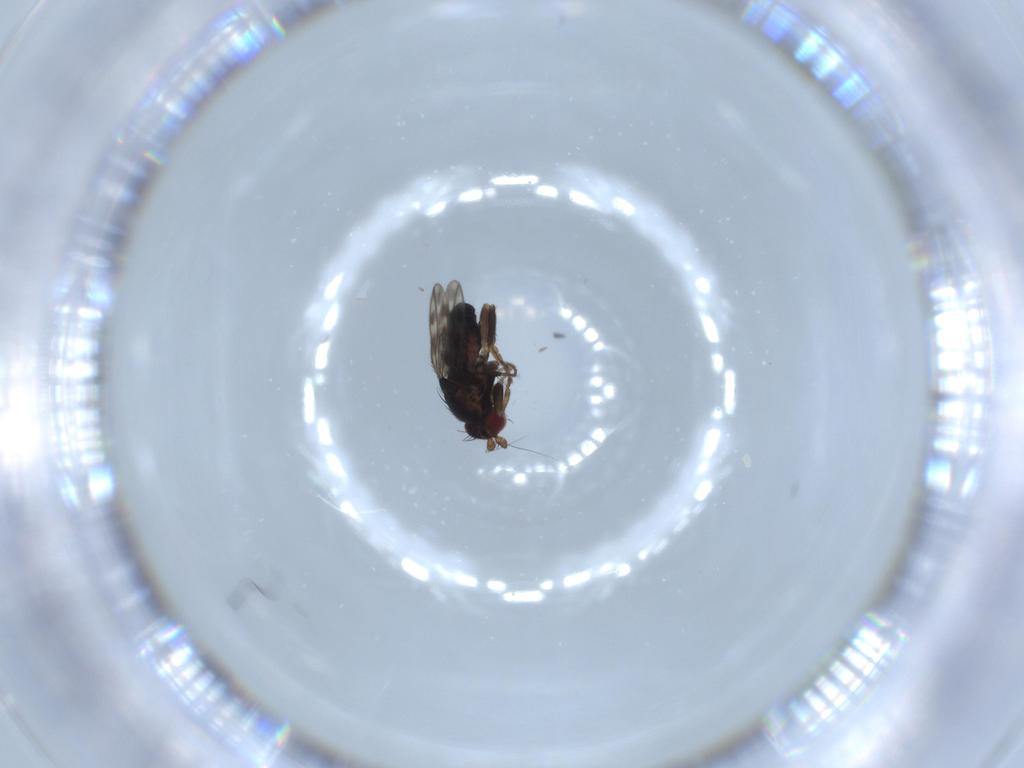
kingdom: Animalia
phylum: Arthropoda
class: Insecta
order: Diptera
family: Sphaeroceridae
